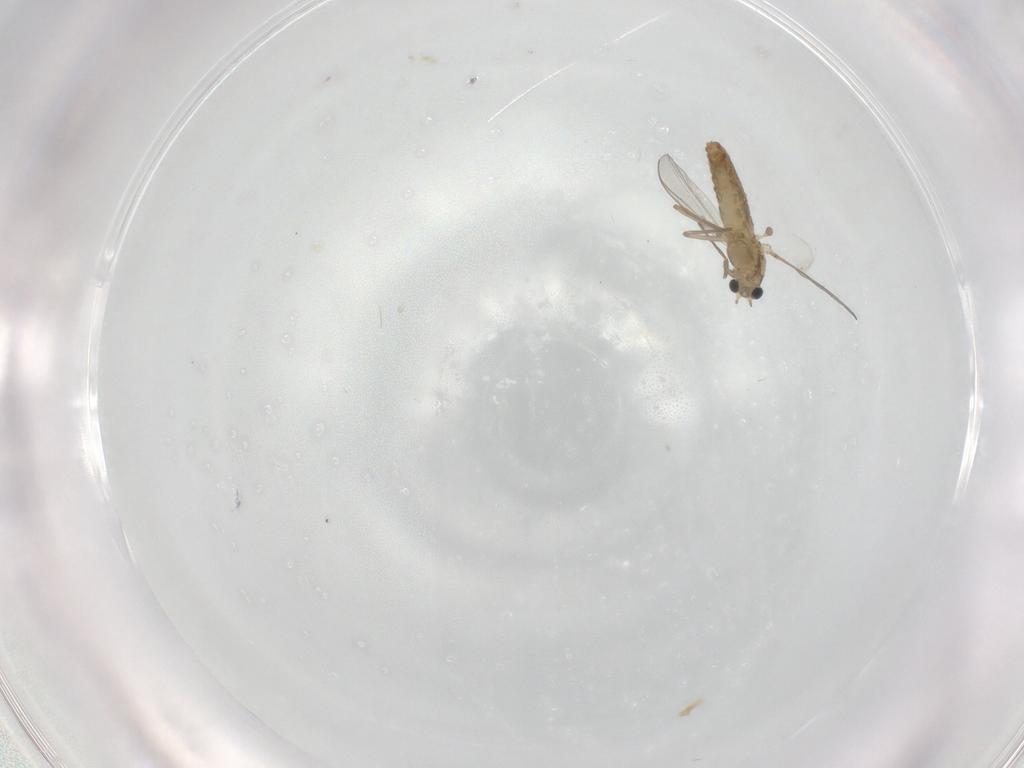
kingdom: Animalia
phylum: Arthropoda
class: Insecta
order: Diptera
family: Chironomidae
